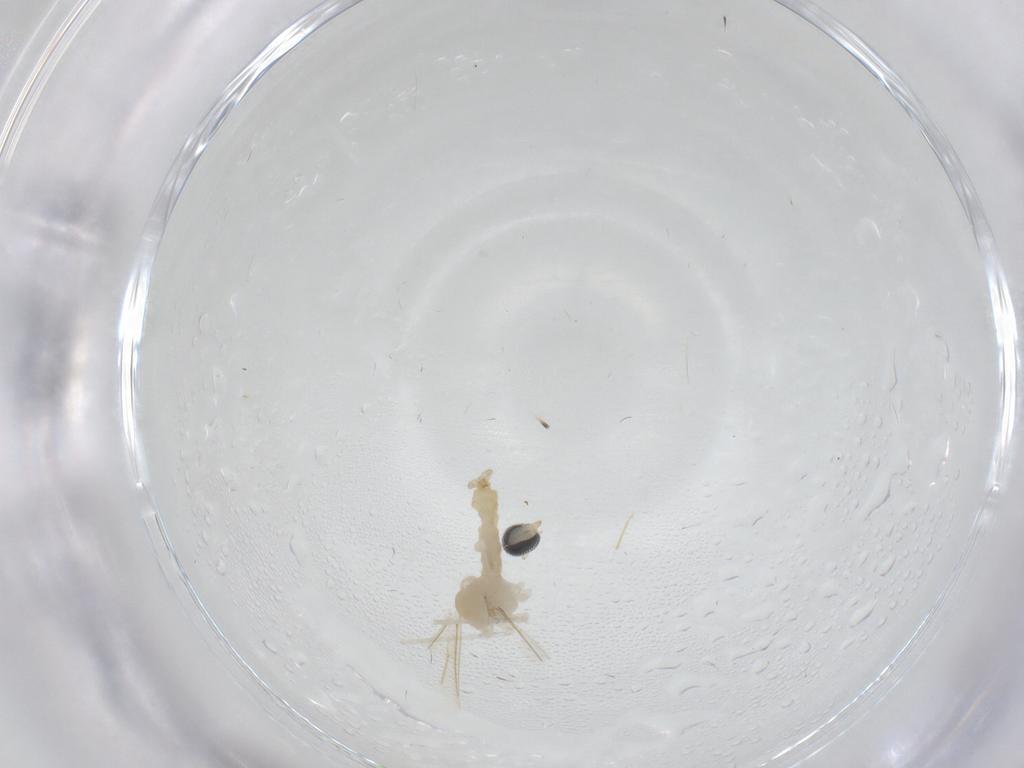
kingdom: Animalia
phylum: Arthropoda
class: Insecta
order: Diptera
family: Cecidomyiidae
